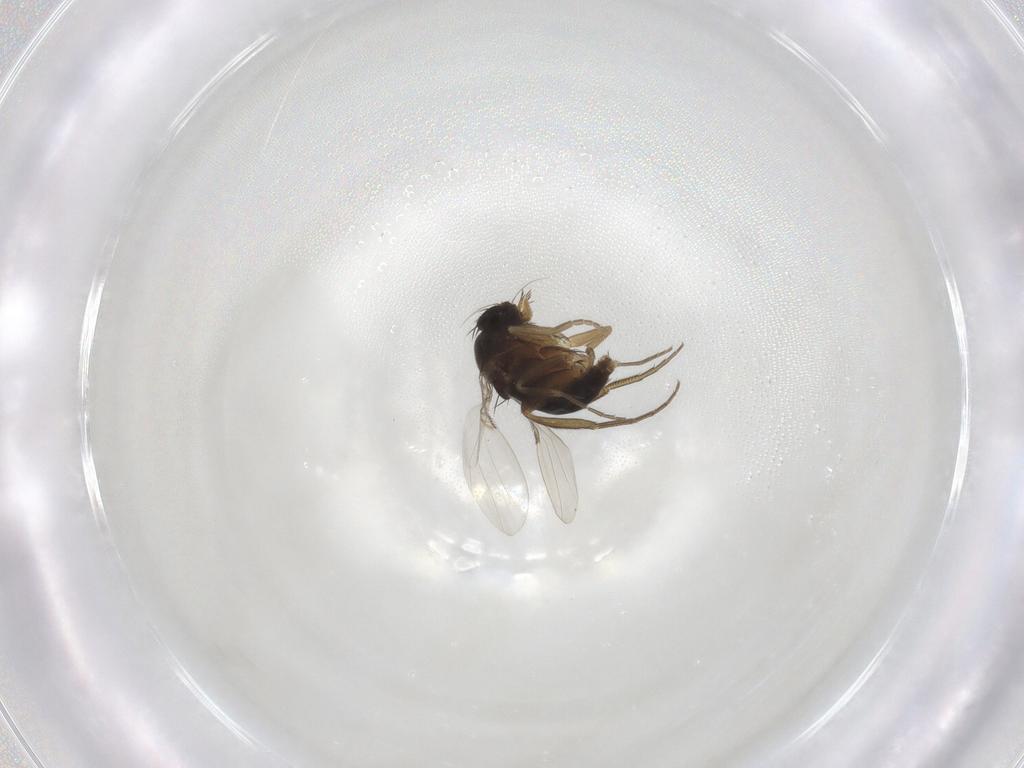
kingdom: Animalia
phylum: Arthropoda
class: Insecta
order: Diptera
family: Phoridae
